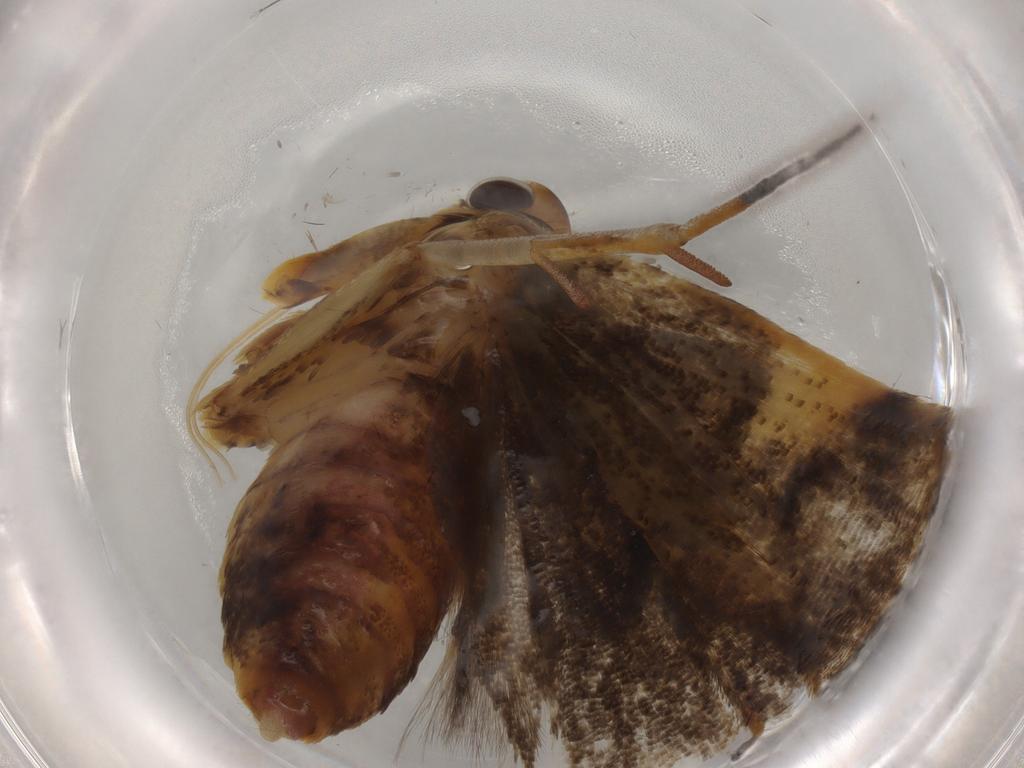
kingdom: Animalia
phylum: Arthropoda
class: Insecta
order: Lepidoptera
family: Lecithoceridae
